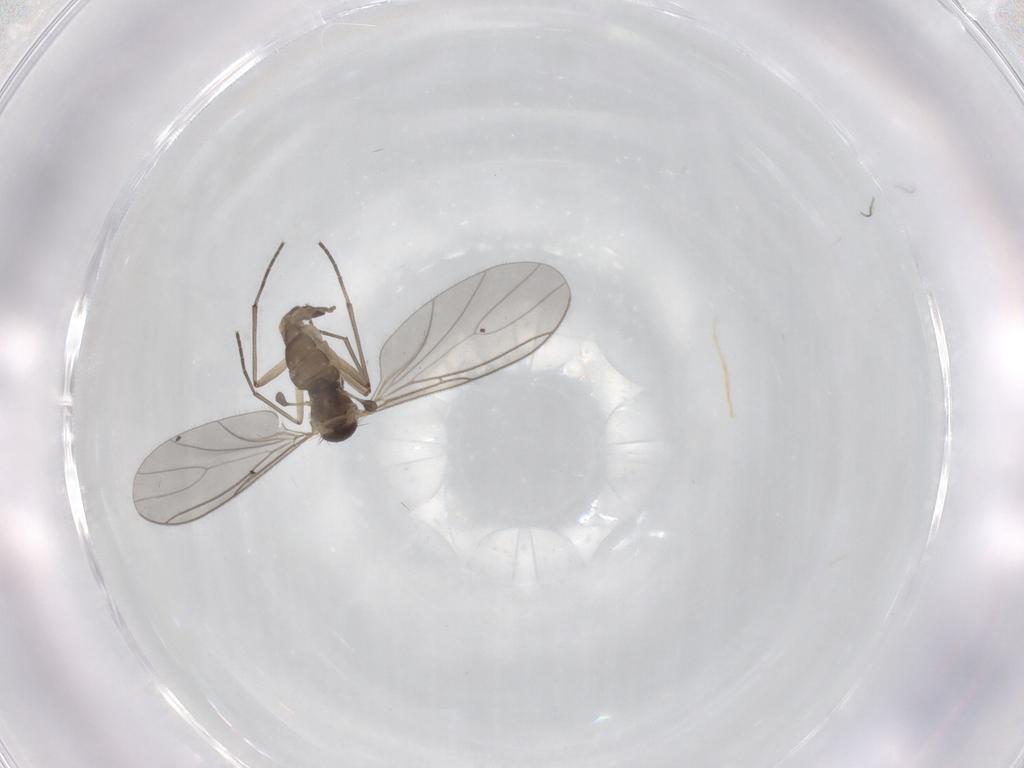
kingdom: Animalia
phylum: Arthropoda
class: Insecta
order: Diptera
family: Sciaridae
